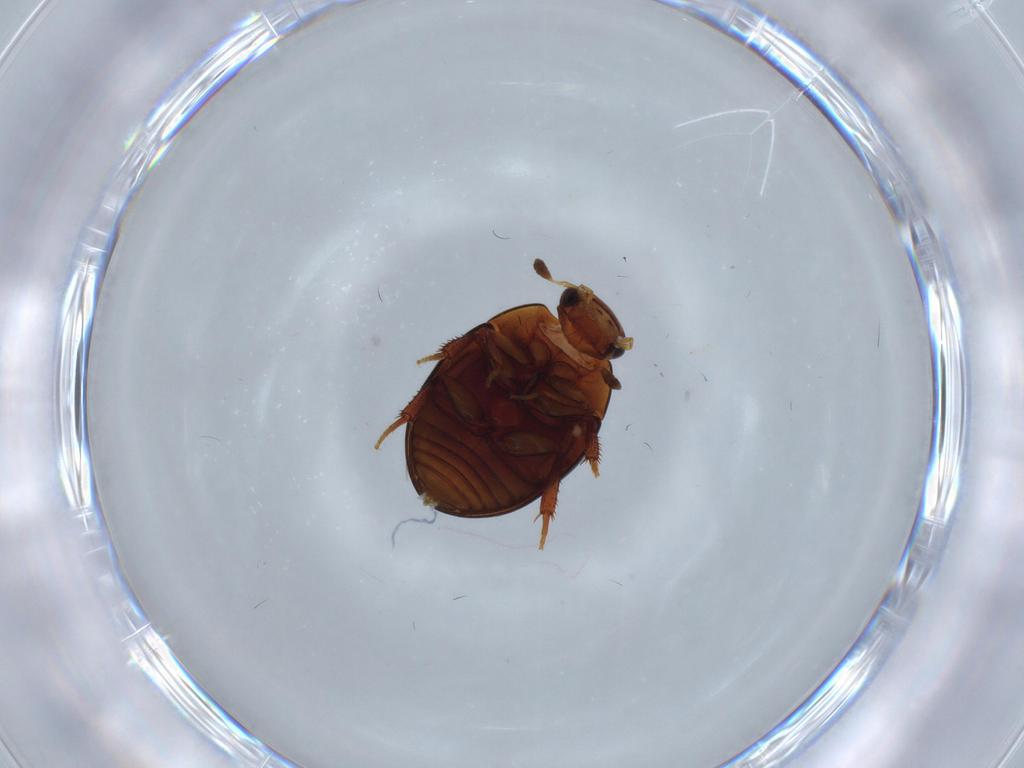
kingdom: Animalia
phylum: Arthropoda
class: Insecta
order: Coleoptera
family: Hydrophilidae
